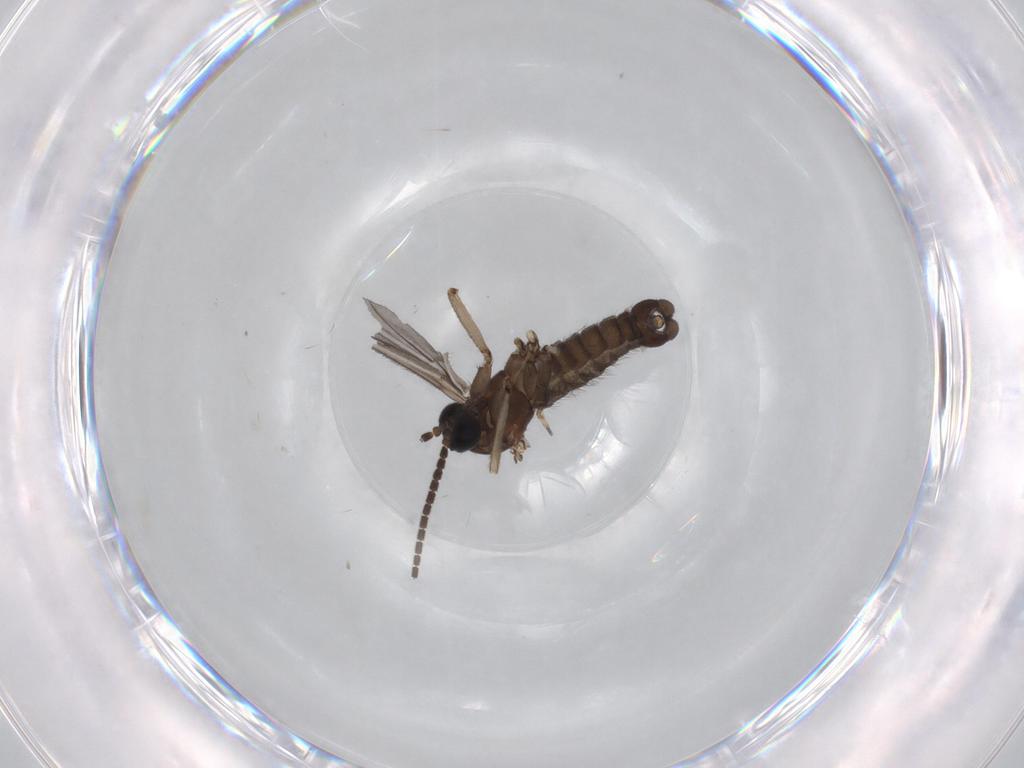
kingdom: Animalia
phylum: Arthropoda
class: Insecta
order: Diptera
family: Sciaridae
